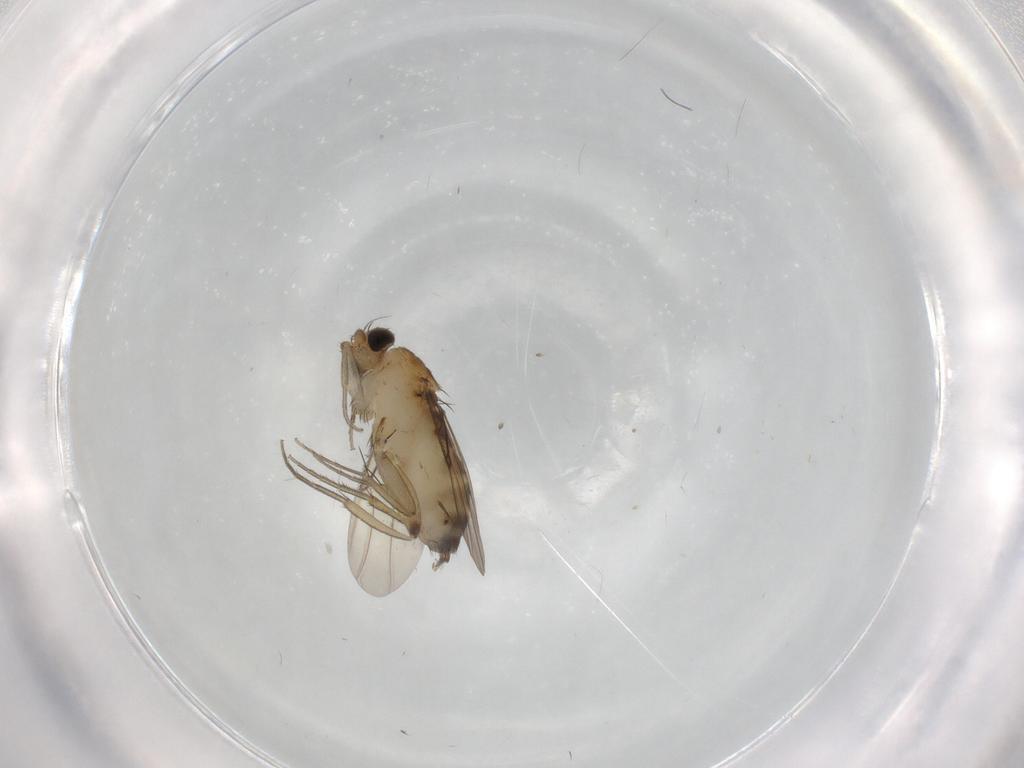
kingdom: Animalia
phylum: Arthropoda
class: Insecta
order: Diptera
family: Phoridae
